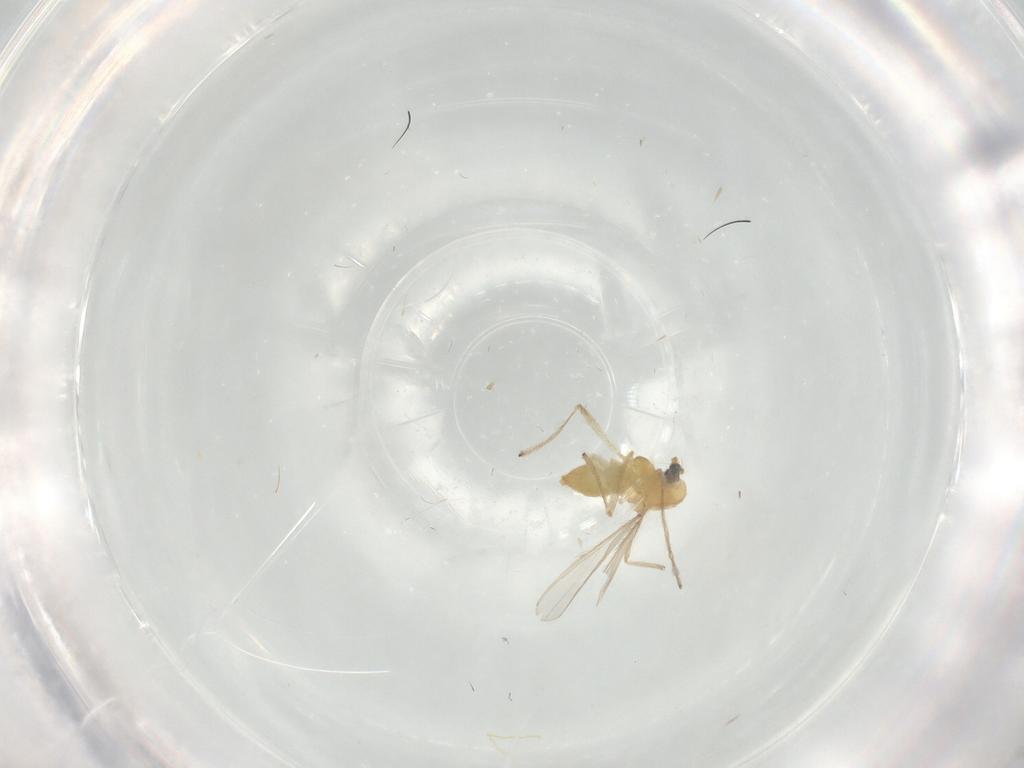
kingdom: Animalia
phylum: Arthropoda
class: Insecta
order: Diptera
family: Chironomidae
